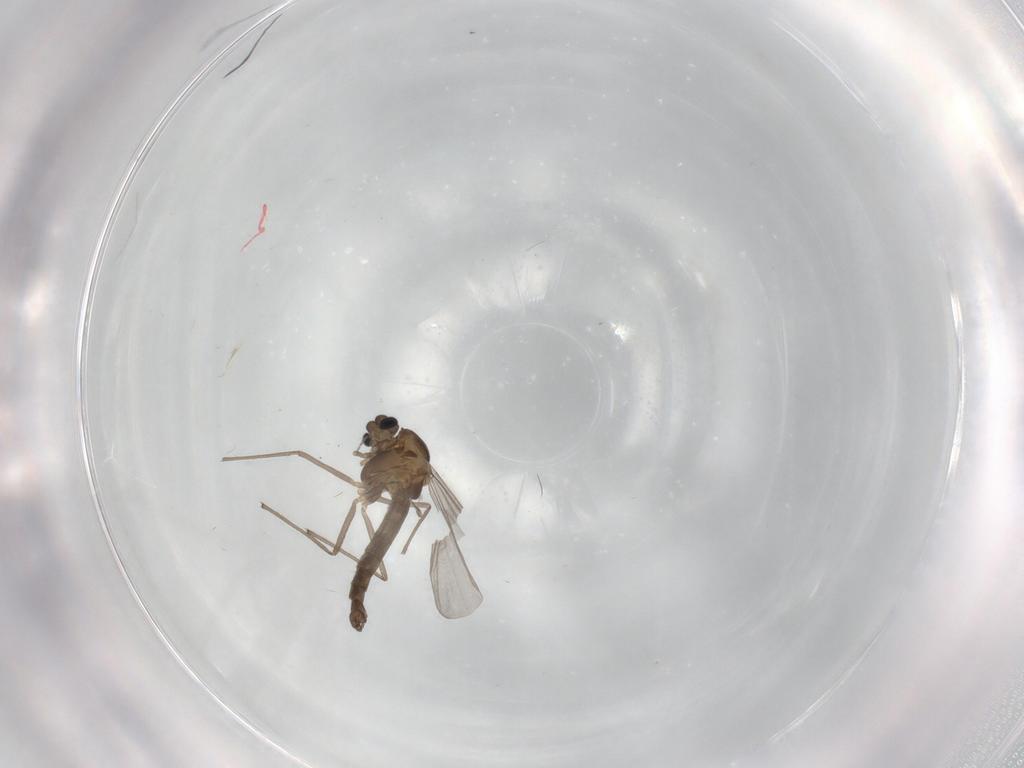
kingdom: Animalia
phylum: Arthropoda
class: Insecta
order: Diptera
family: Chironomidae
